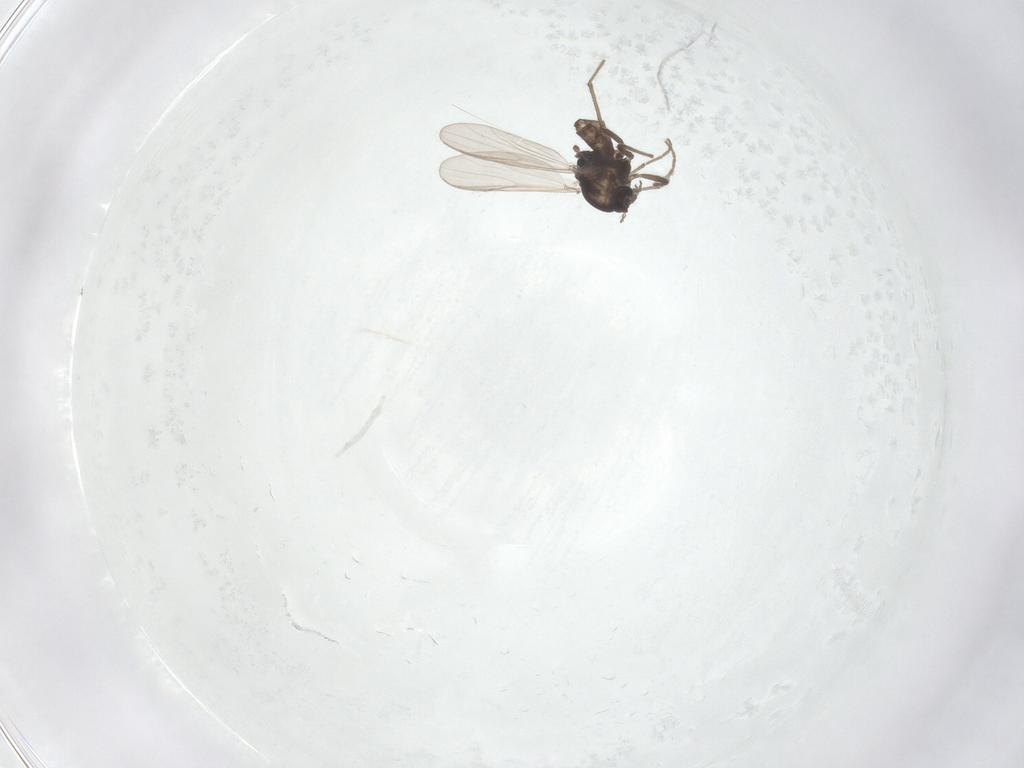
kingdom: Animalia
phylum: Arthropoda
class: Insecta
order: Diptera
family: Chironomidae
